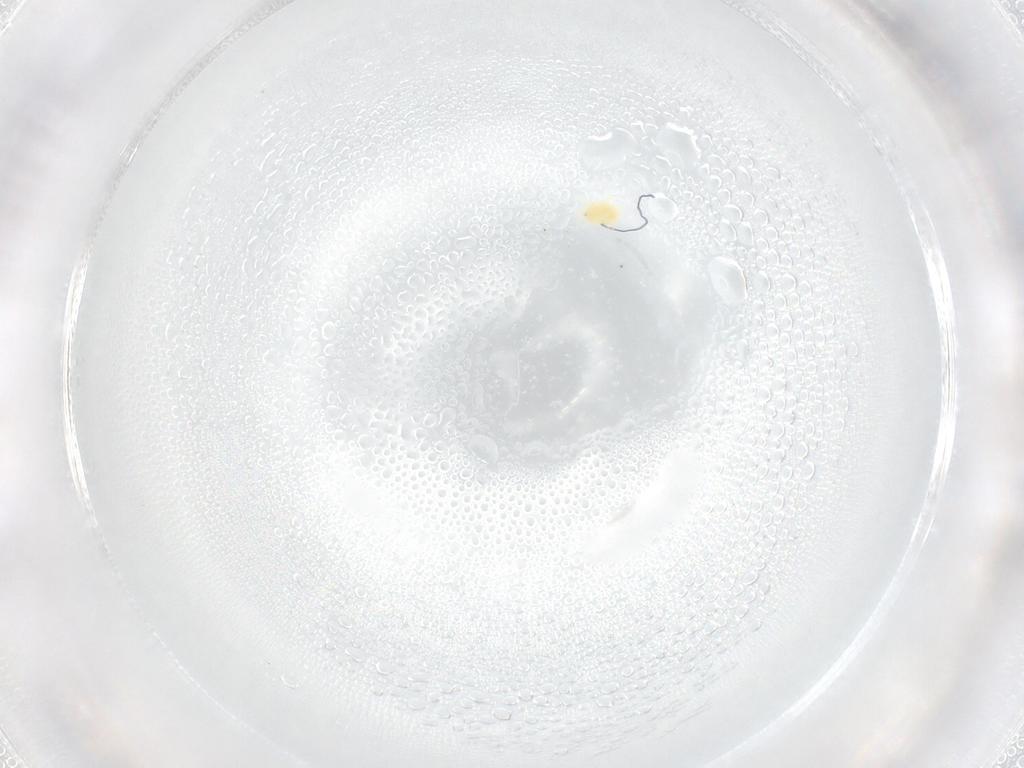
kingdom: Animalia
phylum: Arthropoda
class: Arachnida
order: Trombidiformes
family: Tetranychidae
